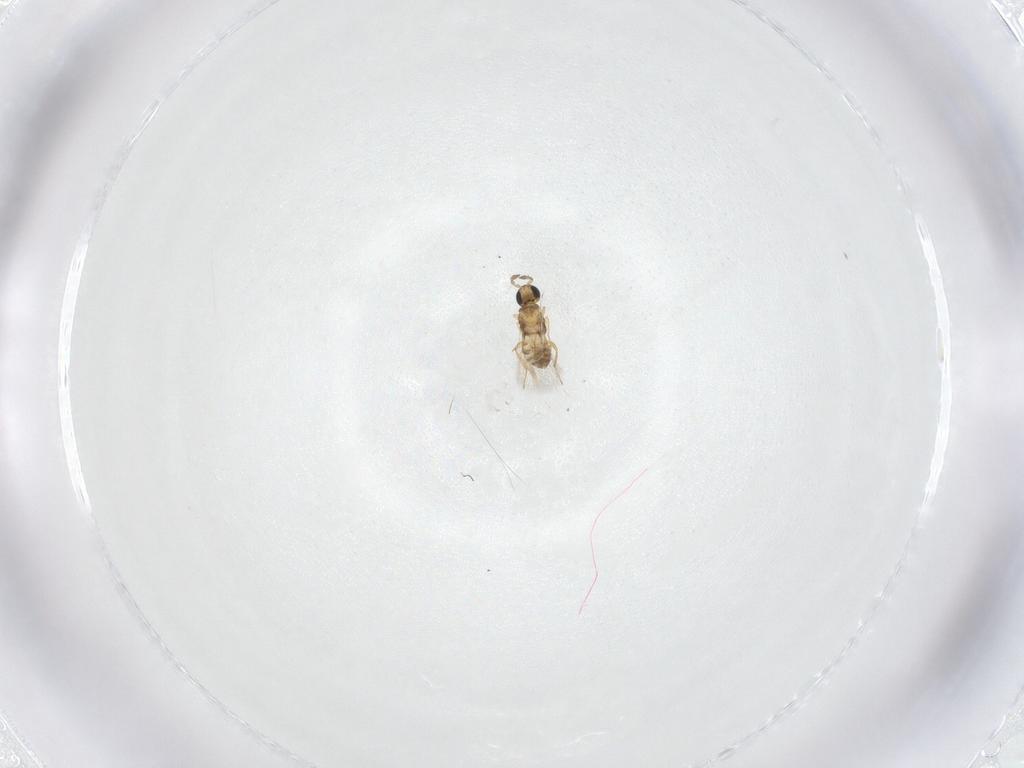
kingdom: Animalia
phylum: Arthropoda
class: Insecta
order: Hymenoptera
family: Trichogrammatidae
